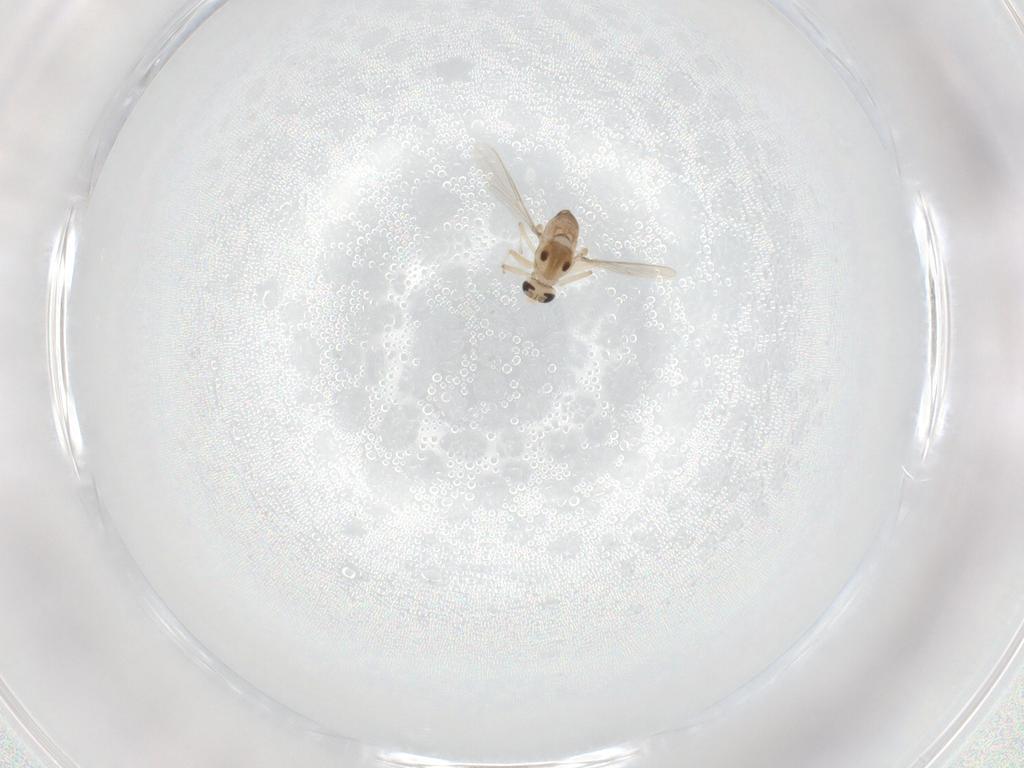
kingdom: Animalia
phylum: Arthropoda
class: Insecta
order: Diptera
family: Chironomidae
